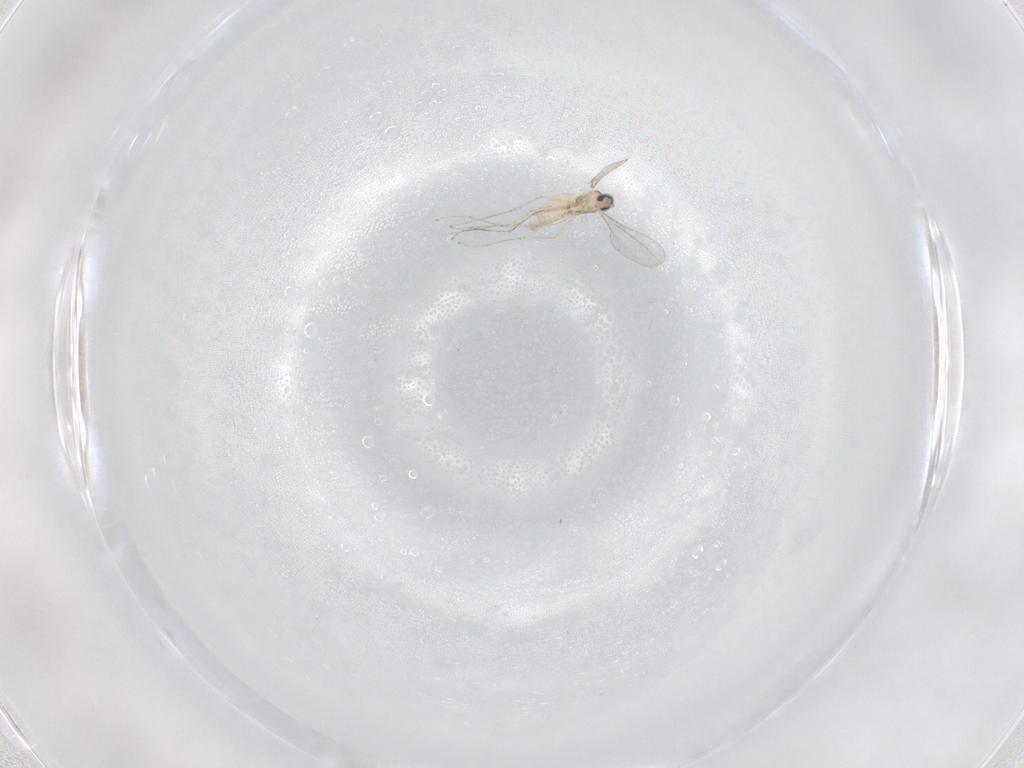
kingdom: Animalia
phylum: Arthropoda
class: Insecta
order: Diptera
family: Cecidomyiidae
